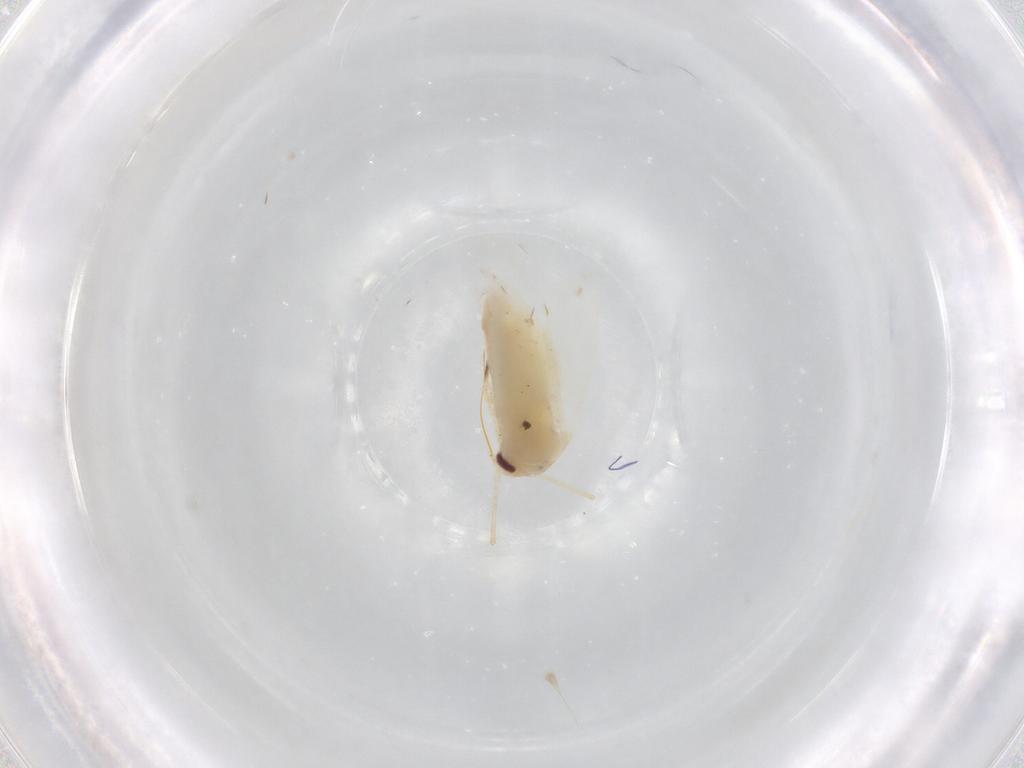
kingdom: Animalia
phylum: Arthropoda
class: Insecta
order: Hemiptera
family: Miridae
